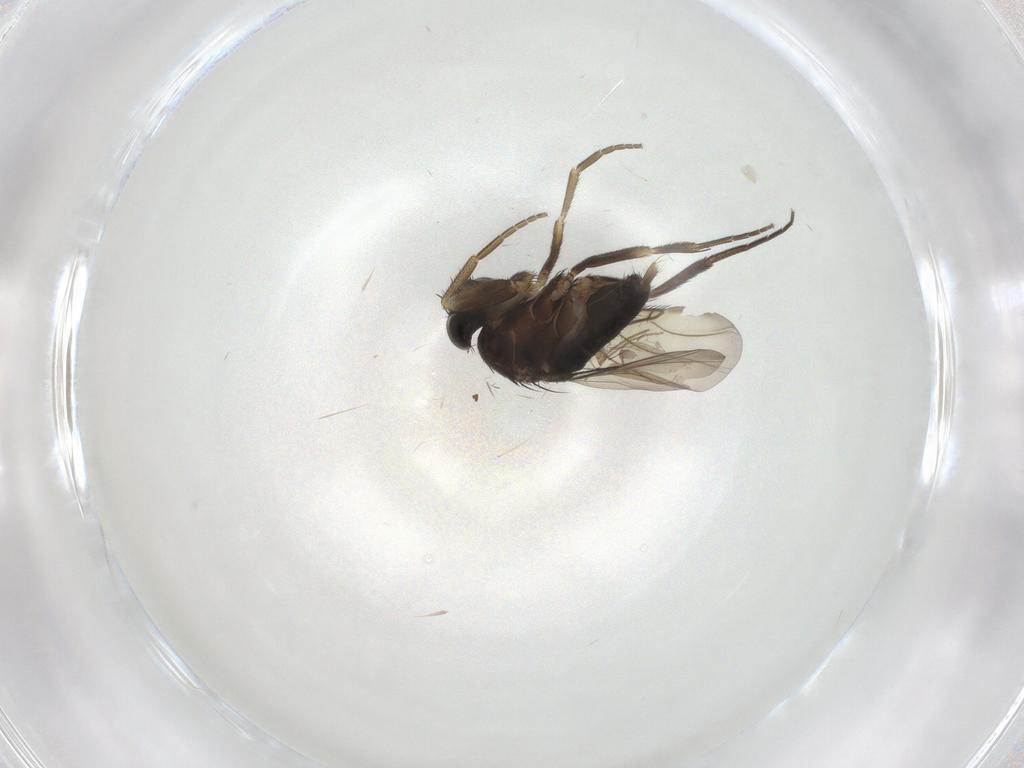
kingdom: Animalia
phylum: Arthropoda
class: Insecta
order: Diptera
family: Phoridae
